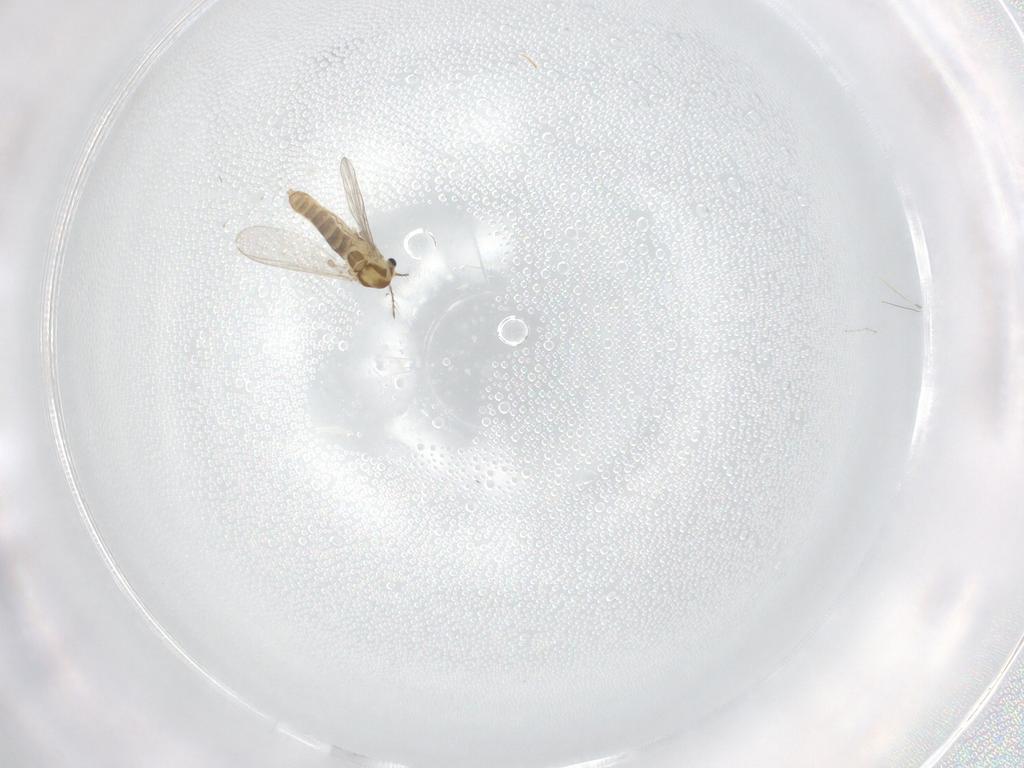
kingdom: Animalia
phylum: Arthropoda
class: Insecta
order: Diptera
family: Chironomidae
